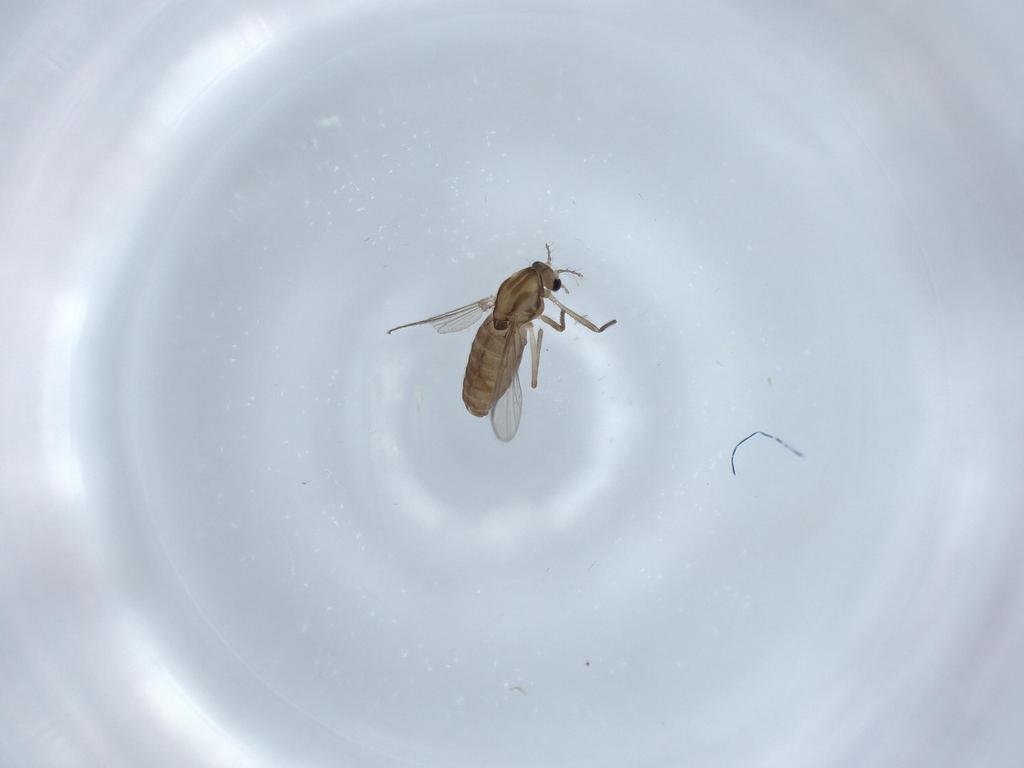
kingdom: Animalia
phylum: Arthropoda
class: Insecta
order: Diptera
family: Chironomidae
